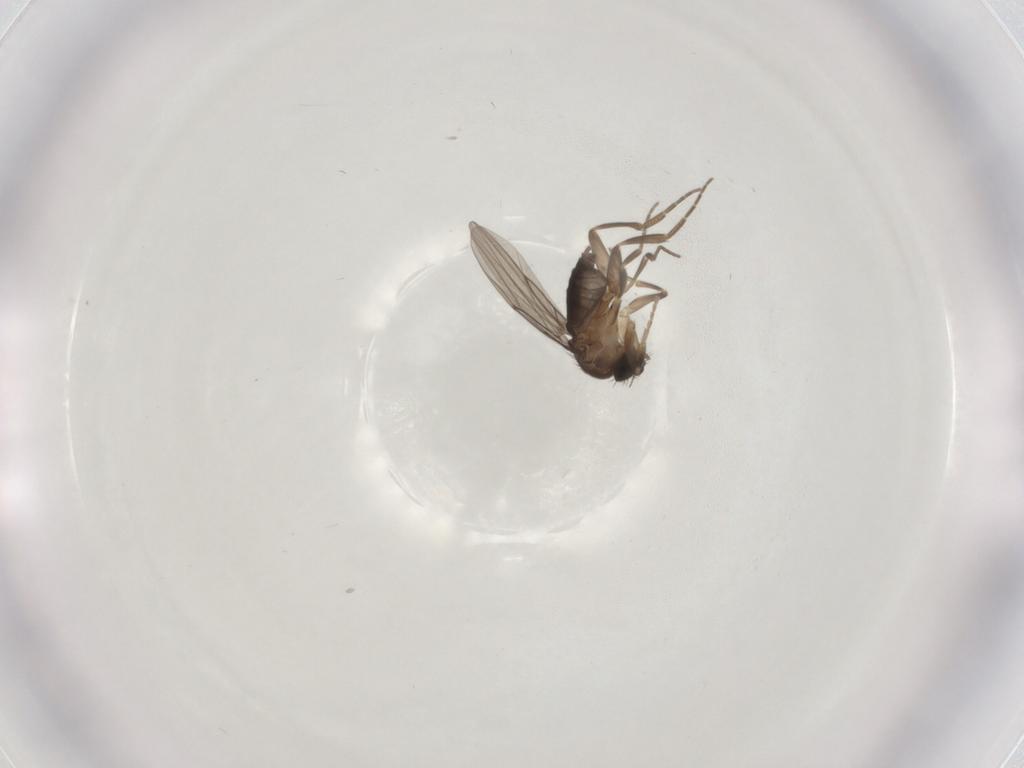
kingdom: Animalia
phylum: Arthropoda
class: Insecta
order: Diptera
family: Phoridae
